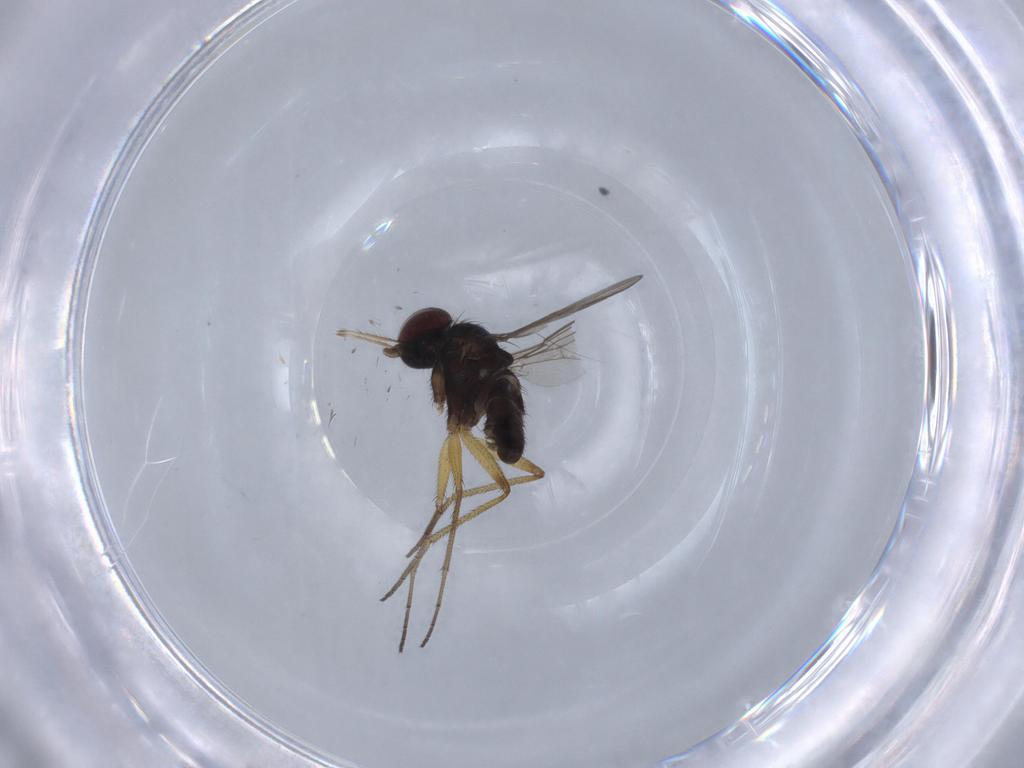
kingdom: Animalia
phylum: Arthropoda
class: Insecta
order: Diptera
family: Dolichopodidae
